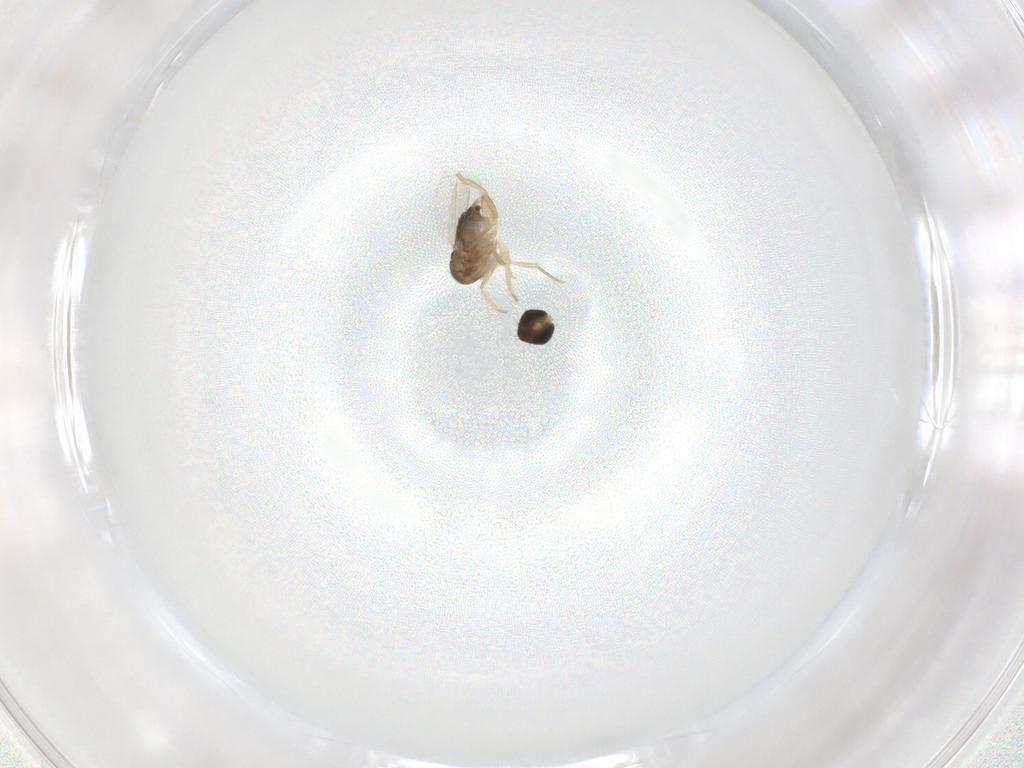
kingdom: Animalia
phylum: Arthropoda
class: Insecta
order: Diptera
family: Phoridae
